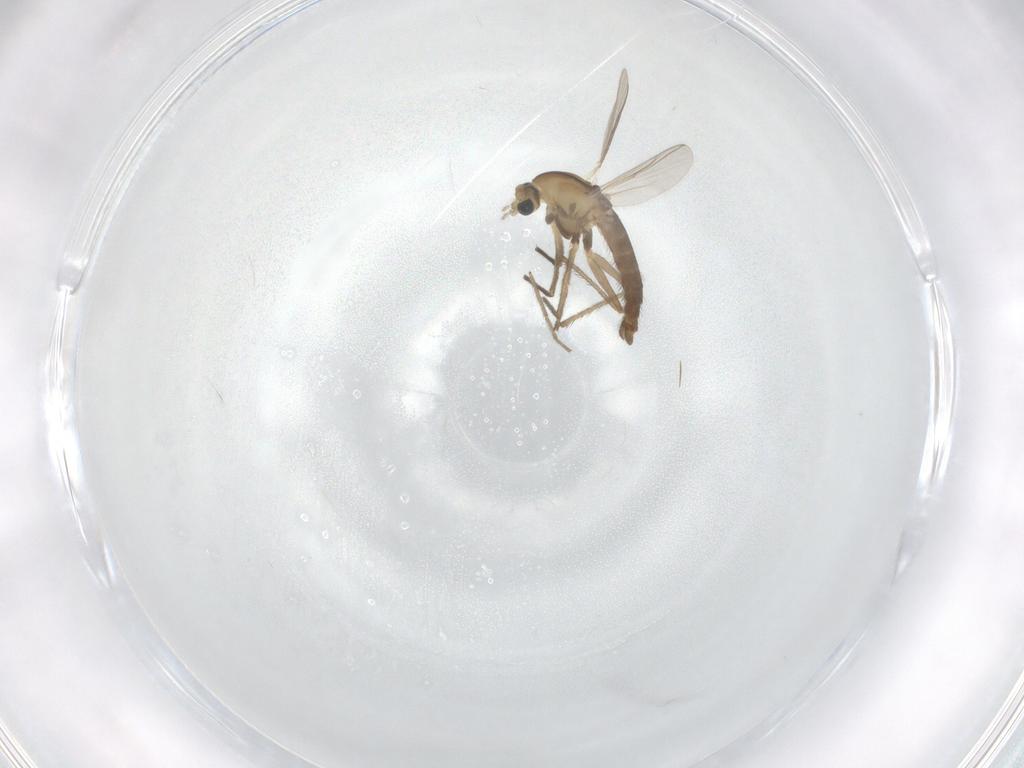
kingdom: Animalia
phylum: Arthropoda
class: Insecta
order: Diptera
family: Chironomidae
